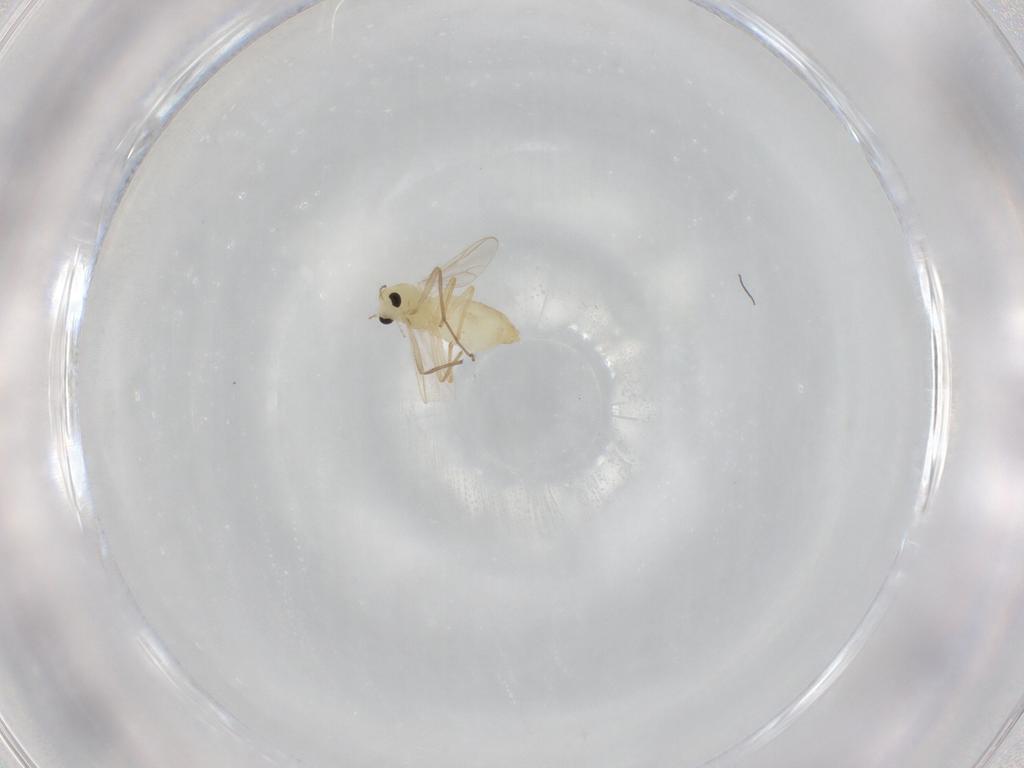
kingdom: Animalia
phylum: Arthropoda
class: Insecta
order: Diptera
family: Chironomidae
